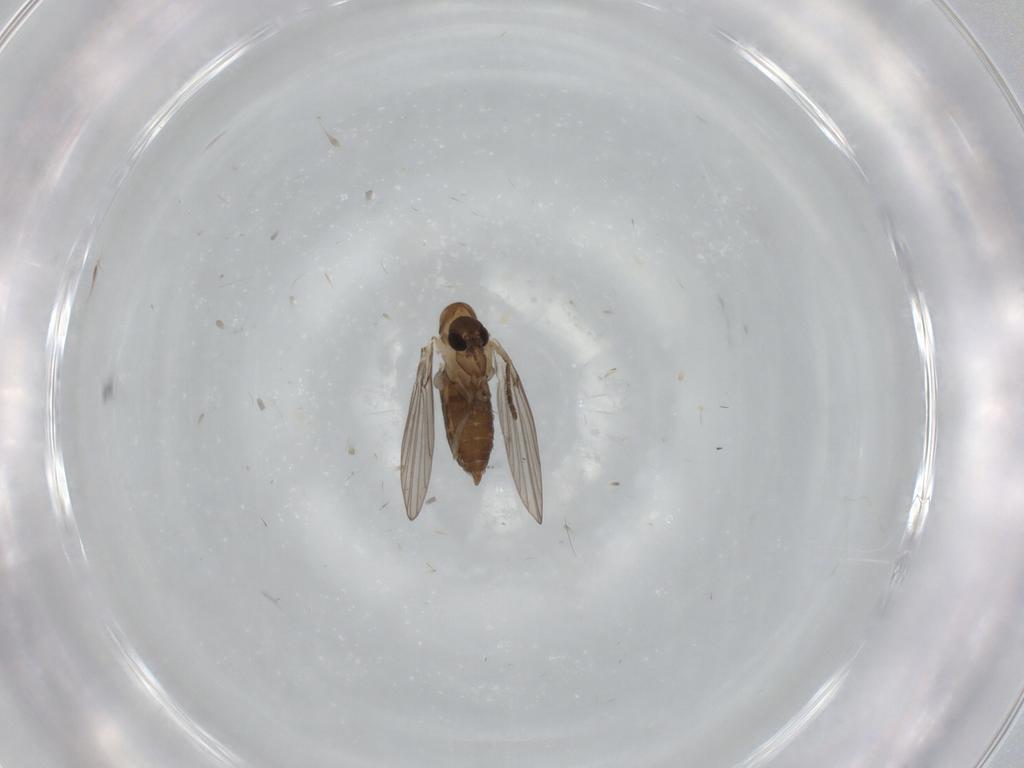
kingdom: Animalia
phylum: Arthropoda
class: Insecta
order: Diptera
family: Psychodidae
